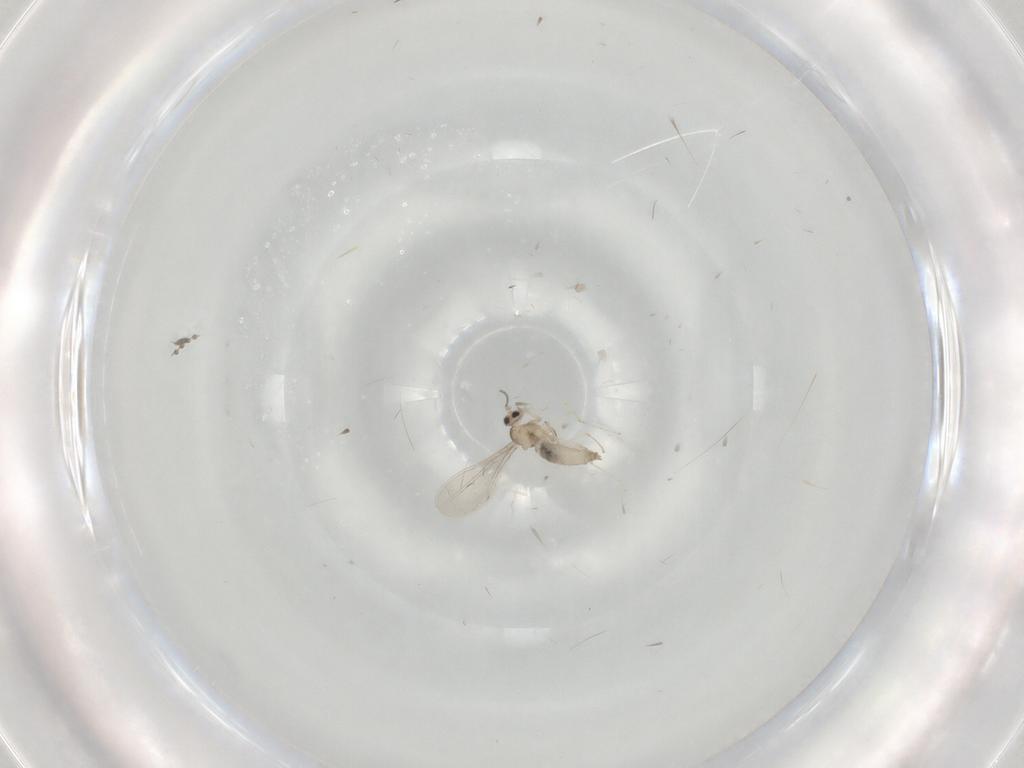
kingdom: Animalia
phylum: Arthropoda
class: Insecta
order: Diptera
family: Cecidomyiidae
